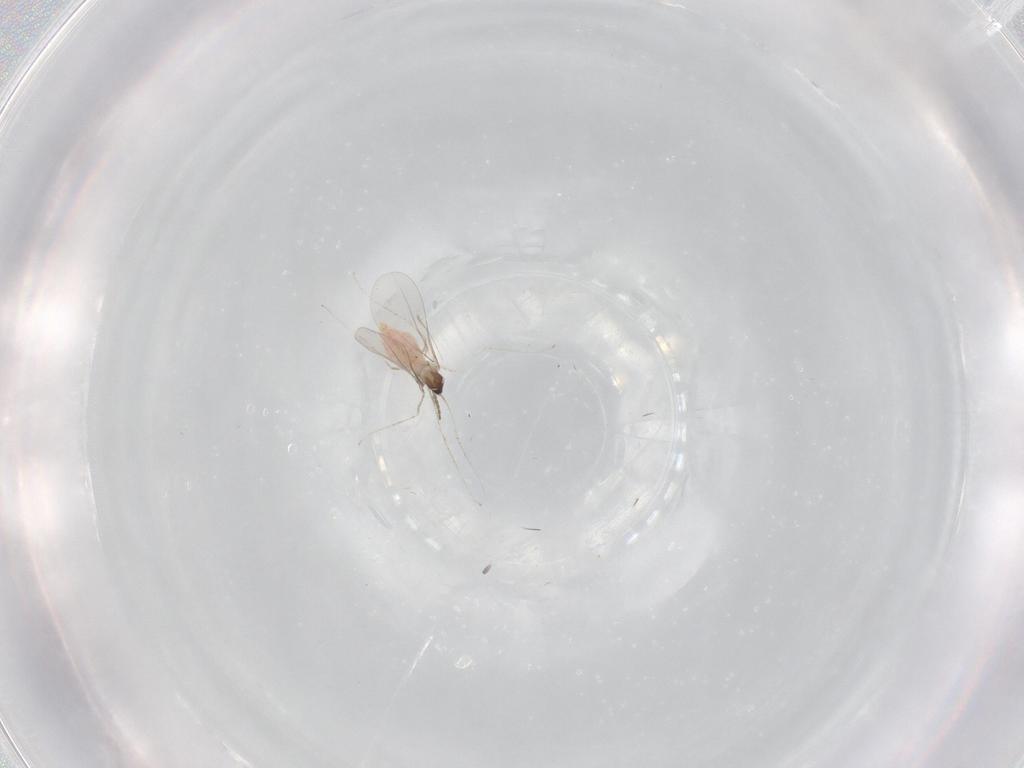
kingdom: Animalia
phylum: Arthropoda
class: Insecta
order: Diptera
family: Cecidomyiidae
